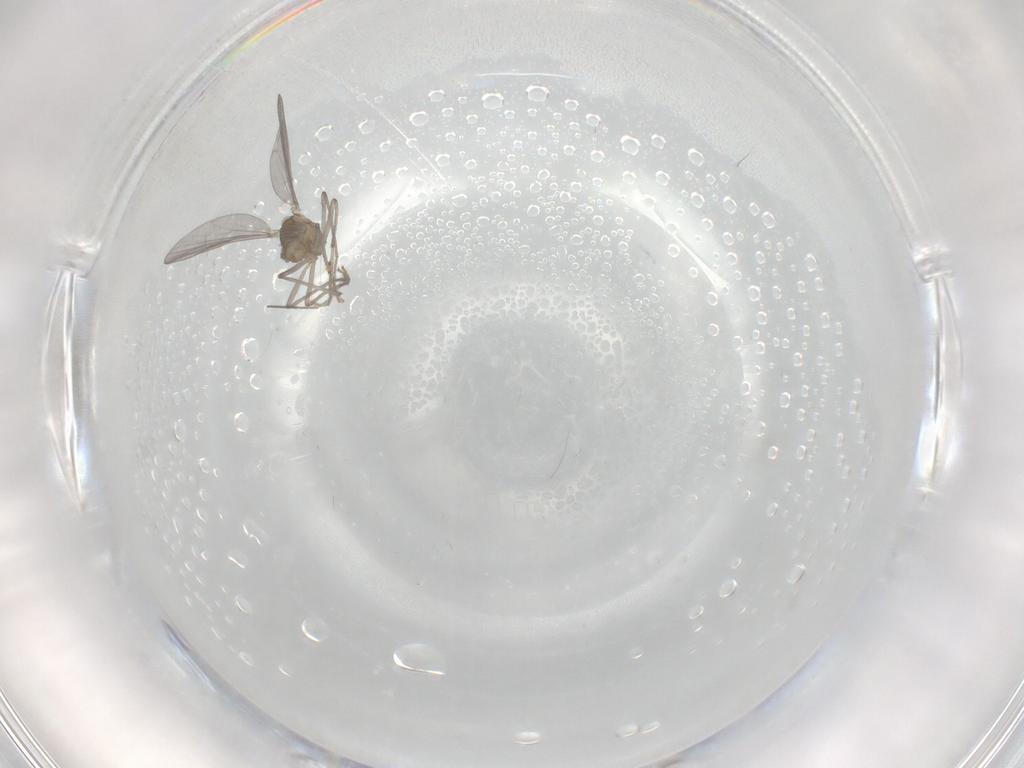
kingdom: Animalia
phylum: Arthropoda
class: Insecta
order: Diptera
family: Chironomidae
